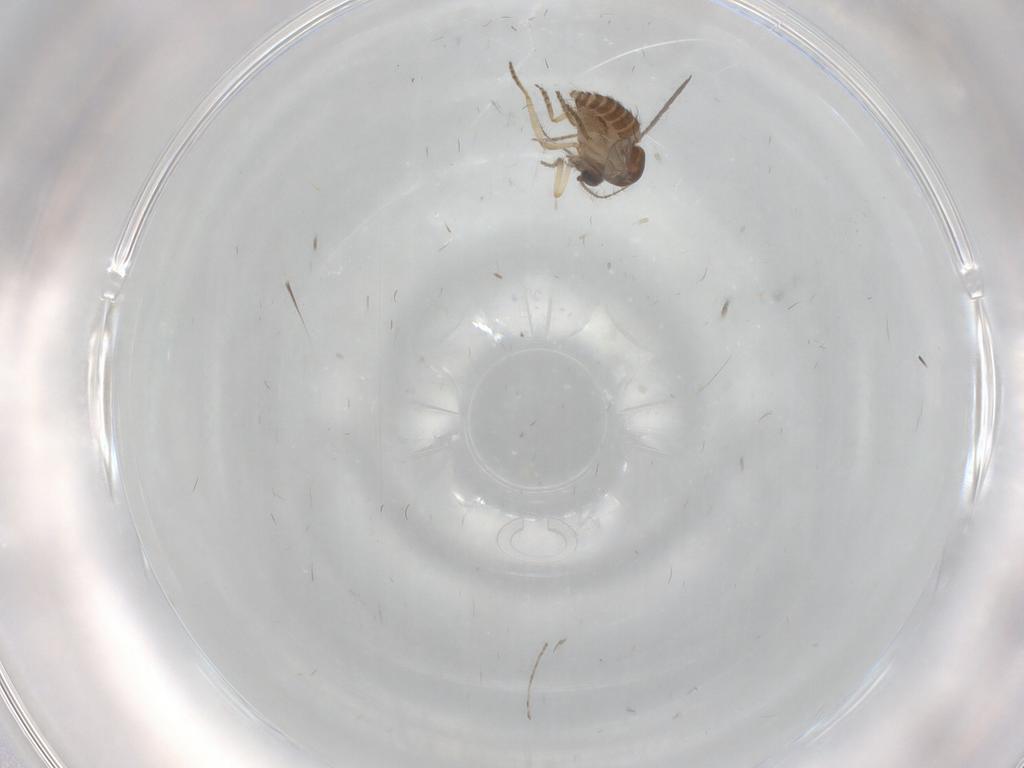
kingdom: Animalia
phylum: Arthropoda
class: Insecta
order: Diptera
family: Ceratopogonidae
